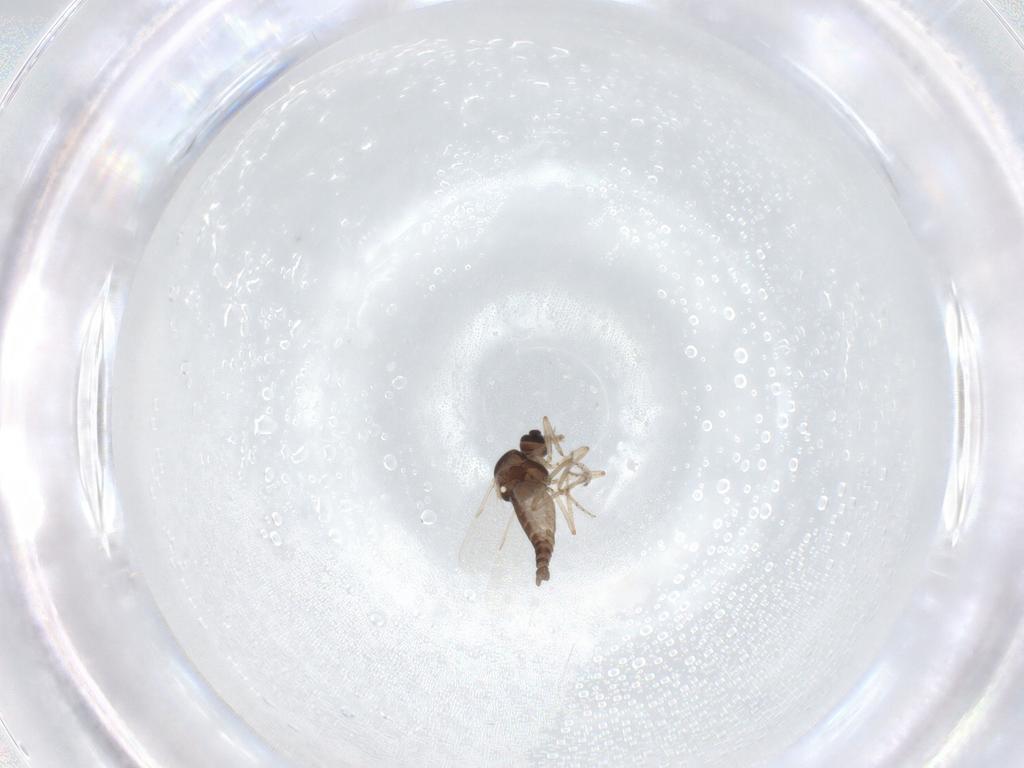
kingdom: Animalia
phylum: Arthropoda
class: Insecta
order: Diptera
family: Ceratopogonidae
